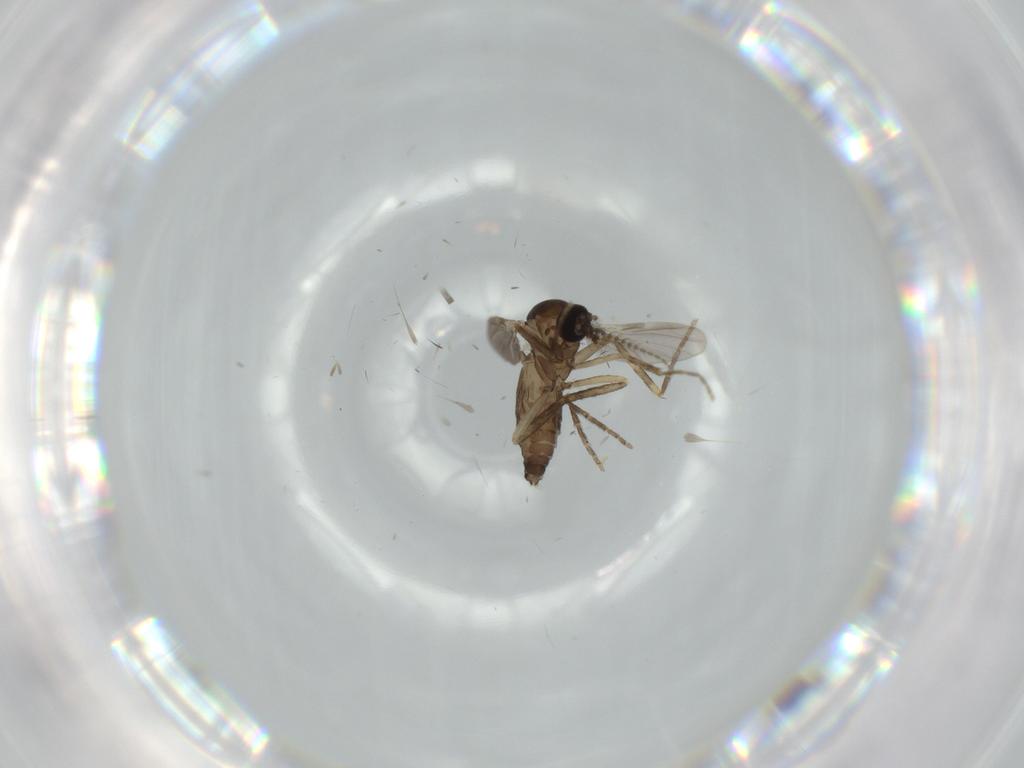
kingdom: Animalia
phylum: Arthropoda
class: Insecta
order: Diptera
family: Ceratopogonidae
